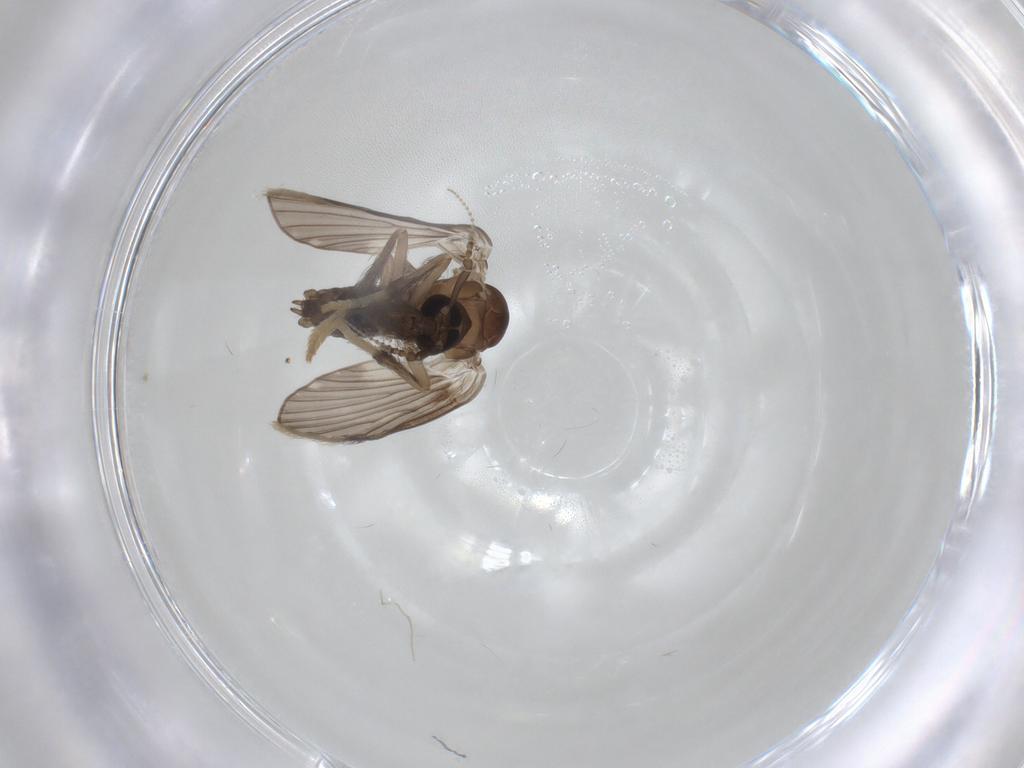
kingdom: Animalia
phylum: Arthropoda
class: Insecta
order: Diptera
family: Psychodidae
